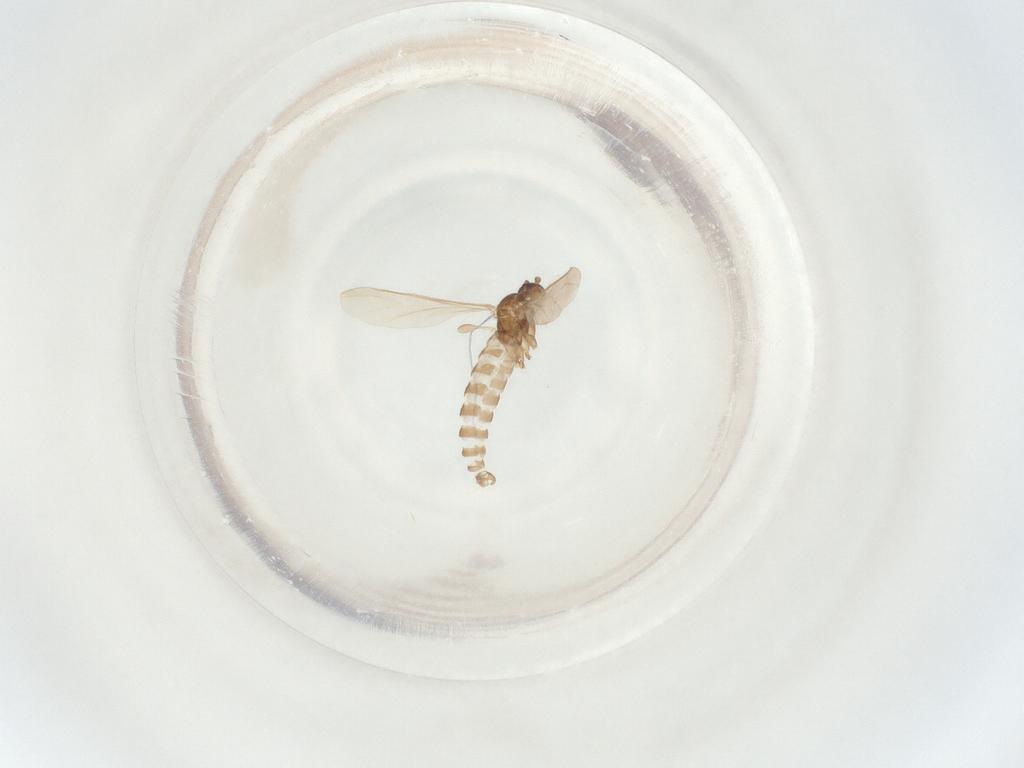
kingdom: Animalia
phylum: Arthropoda
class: Insecta
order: Diptera
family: Sciaridae
